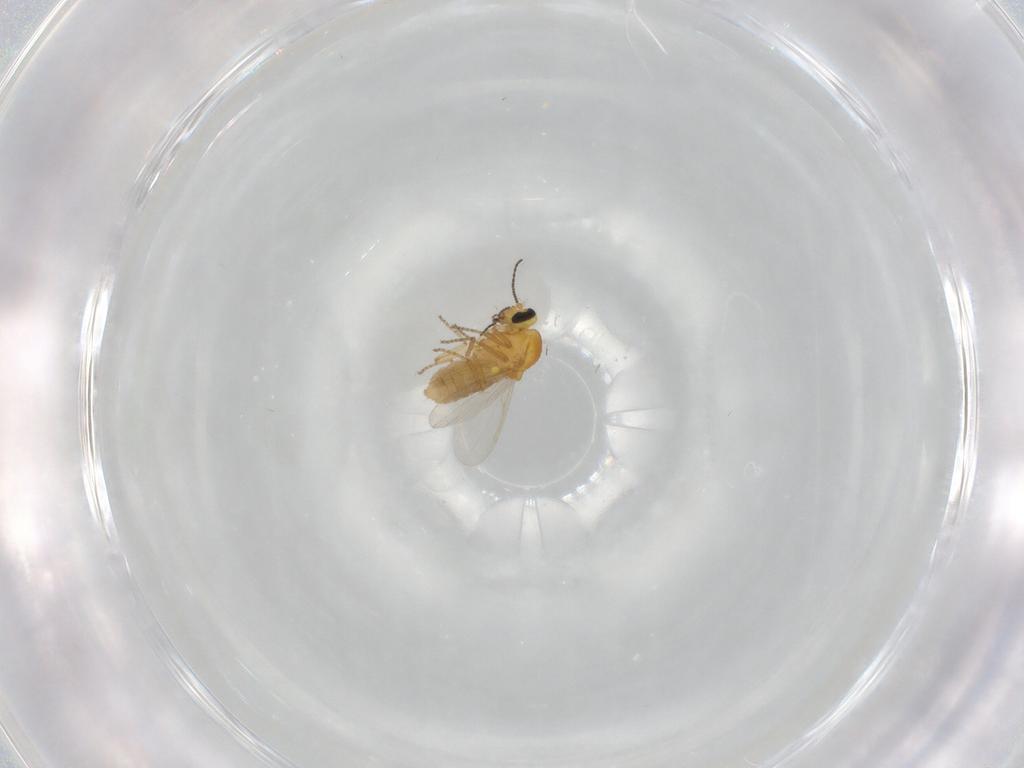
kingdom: Animalia
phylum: Arthropoda
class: Insecta
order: Diptera
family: Ceratopogonidae
